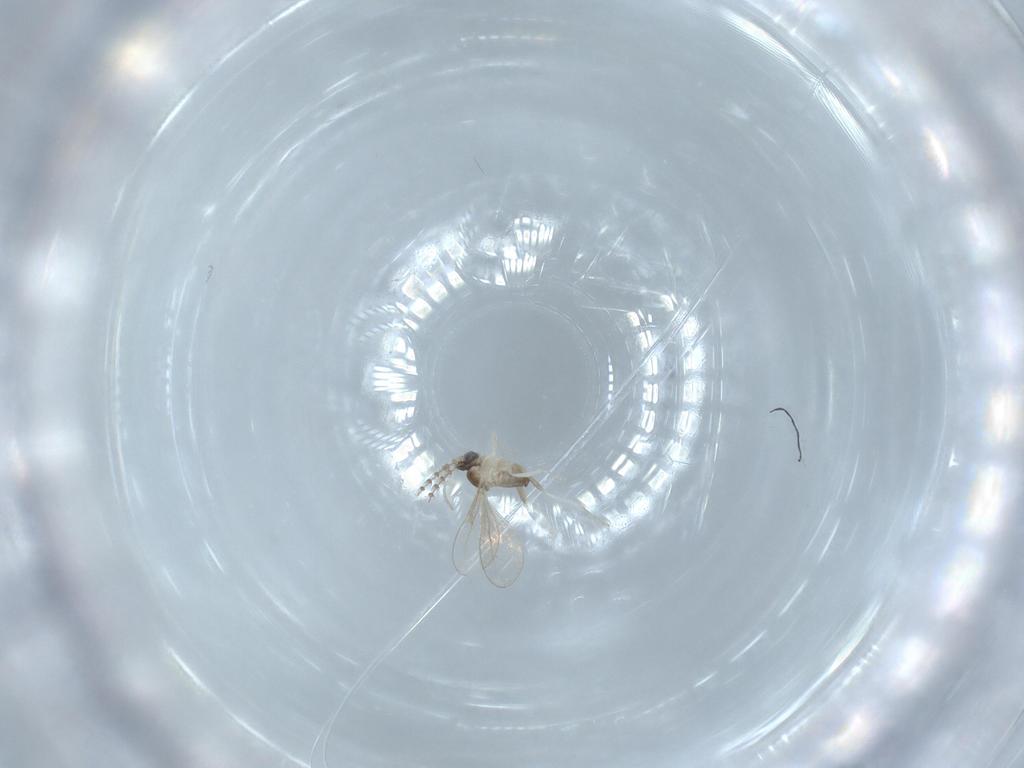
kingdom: Animalia
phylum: Arthropoda
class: Insecta
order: Diptera
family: Cecidomyiidae
